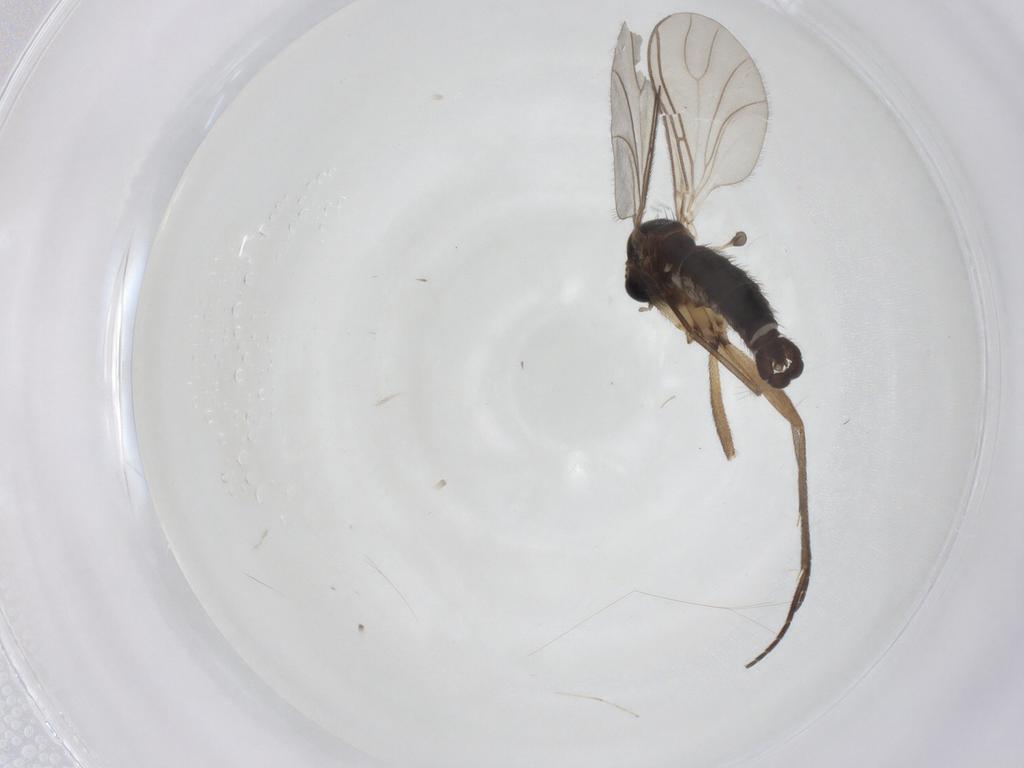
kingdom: Animalia
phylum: Arthropoda
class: Insecta
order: Diptera
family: Sciaridae
